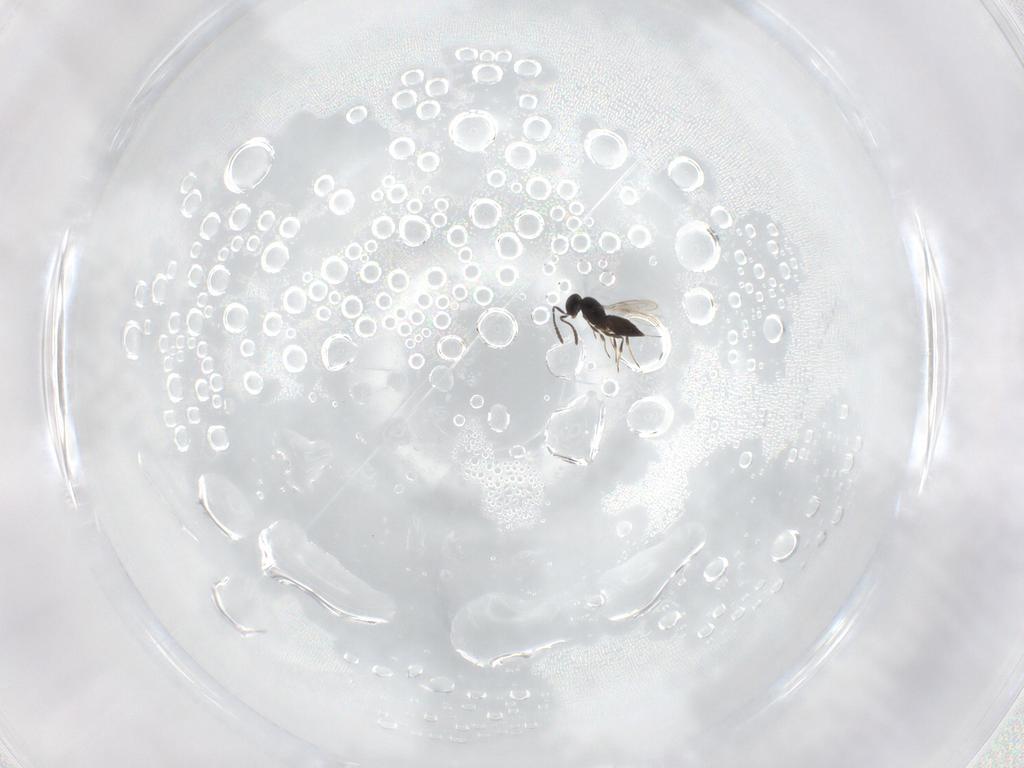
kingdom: Animalia
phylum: Arthropoda
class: Insecta
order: Hymenoptera
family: Scelionidae
